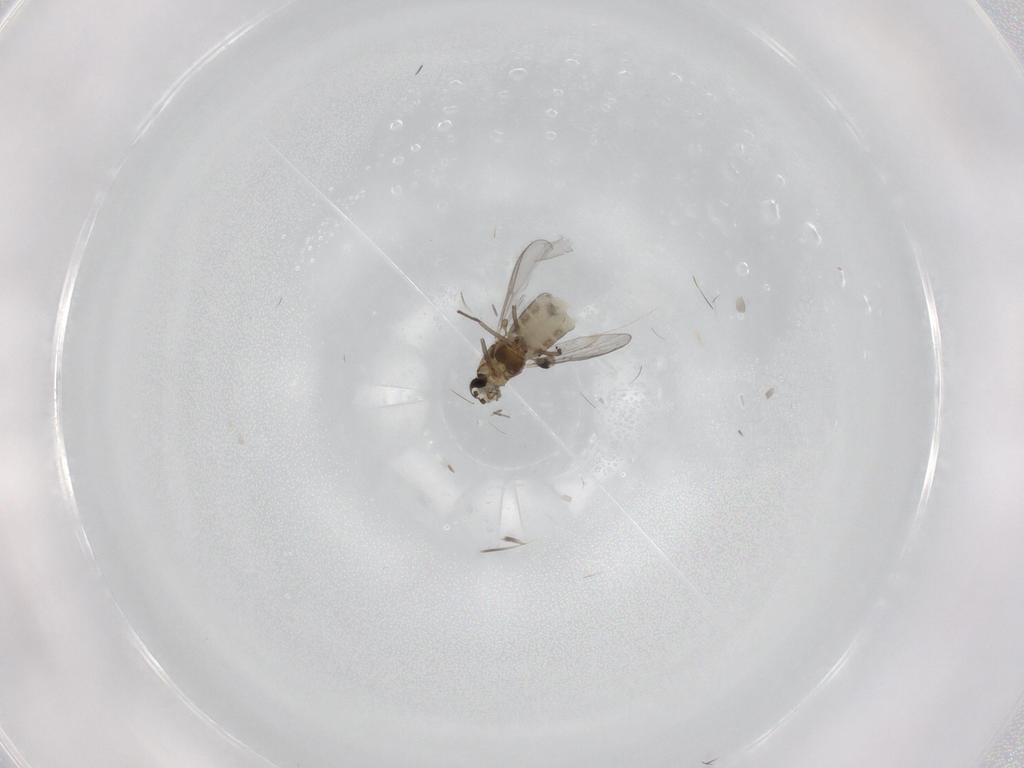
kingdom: Animalia
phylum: Arthropoda
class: Insecta
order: Diptera
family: Chironomidae
